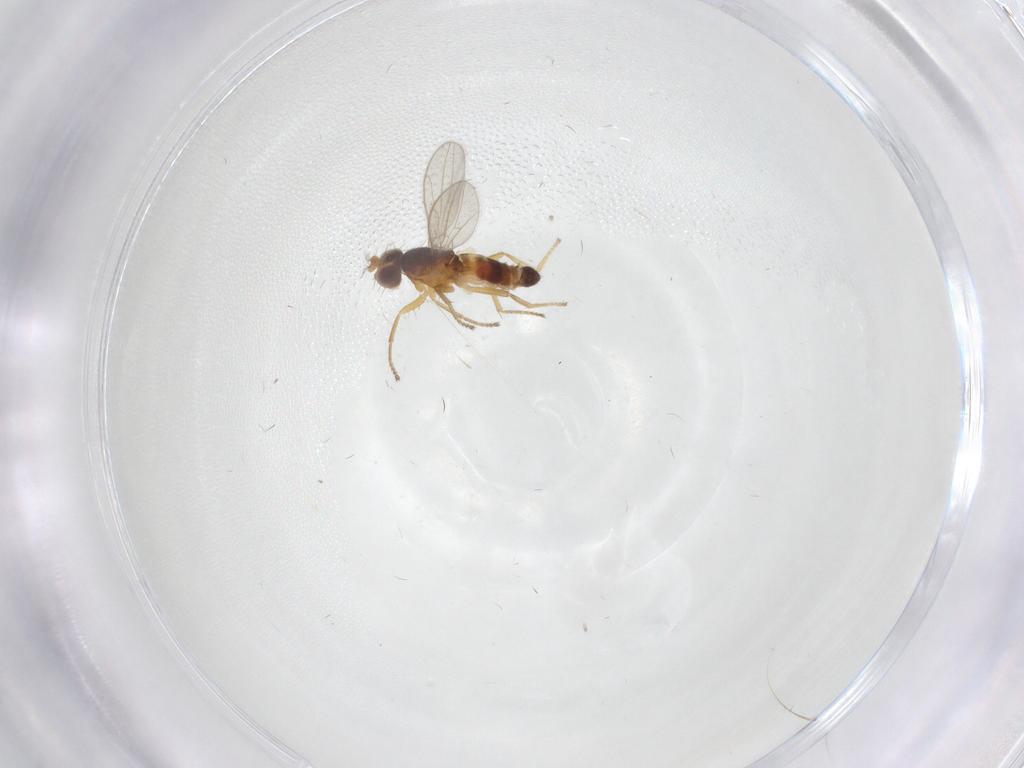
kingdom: Animalia
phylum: Arthropoda
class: Insecta
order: Diptera
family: Periscelididae
